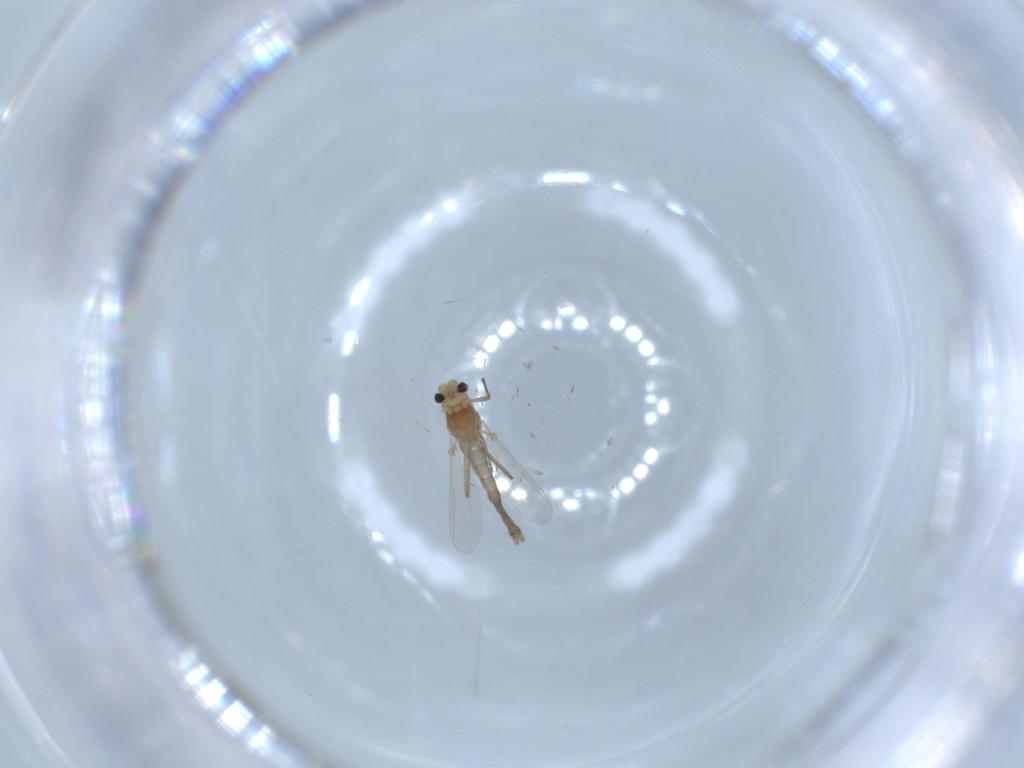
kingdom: Animalia
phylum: Arthropoda
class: Insecta
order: Diptera
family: Chironomidae
